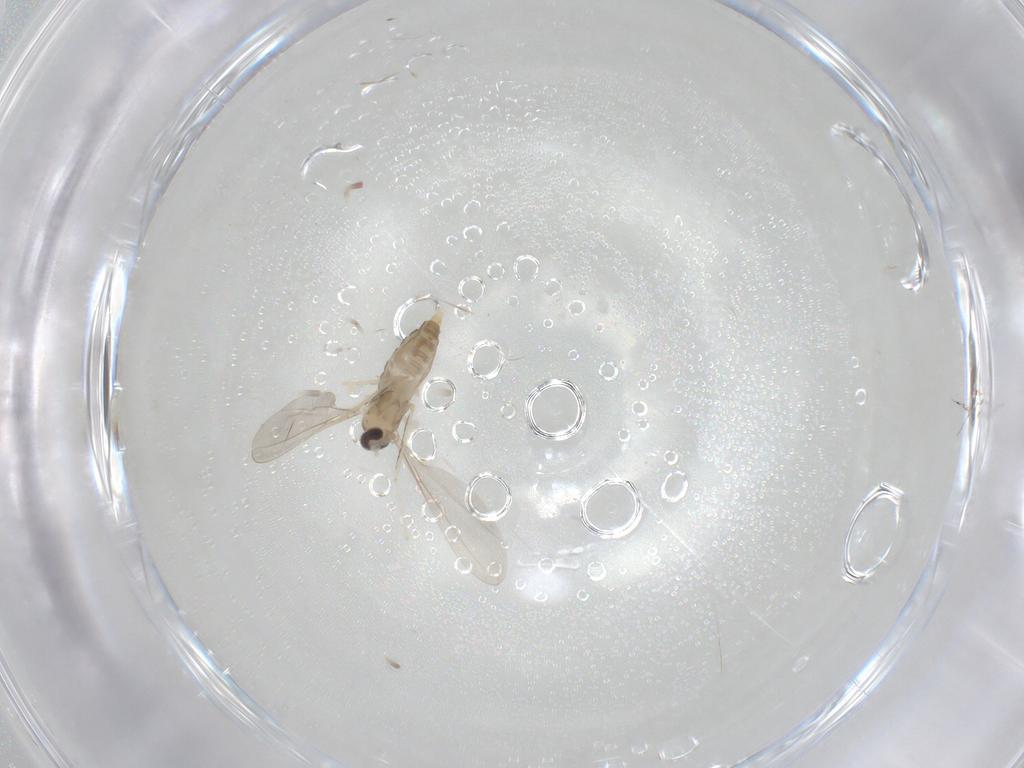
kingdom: Animalia
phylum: Arthropoda
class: Insecta
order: Diptera
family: Cecidomyiidae
